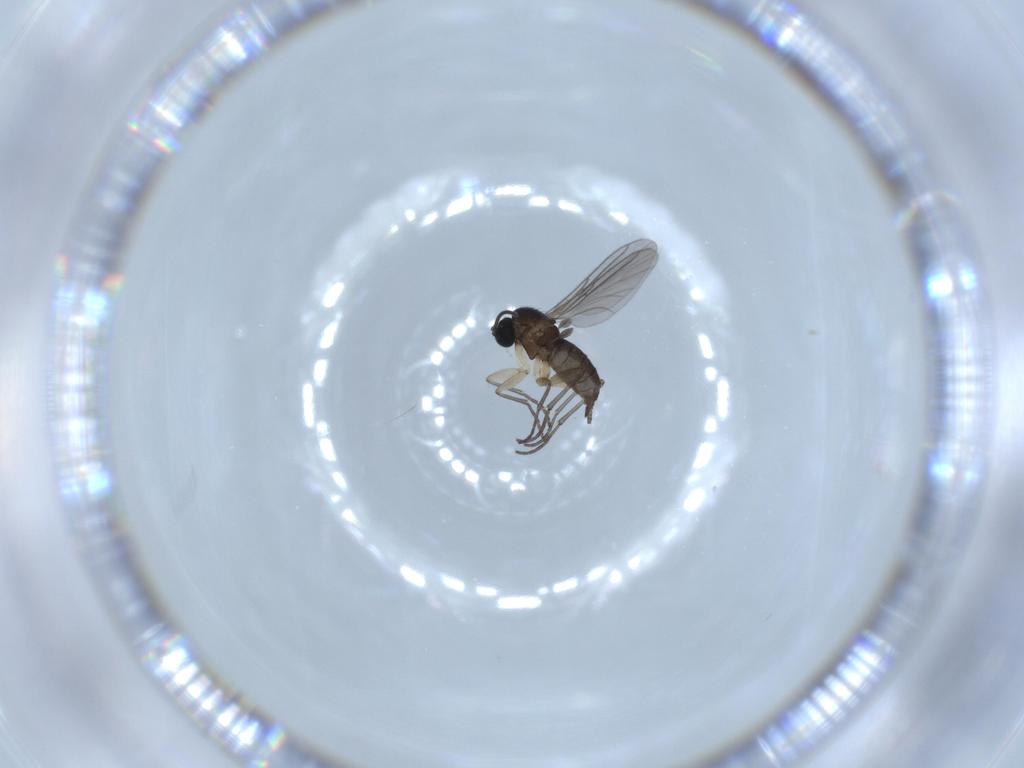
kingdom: Animalia
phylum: Arthropoda
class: Insecta
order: Diptera
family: Sciaridae
